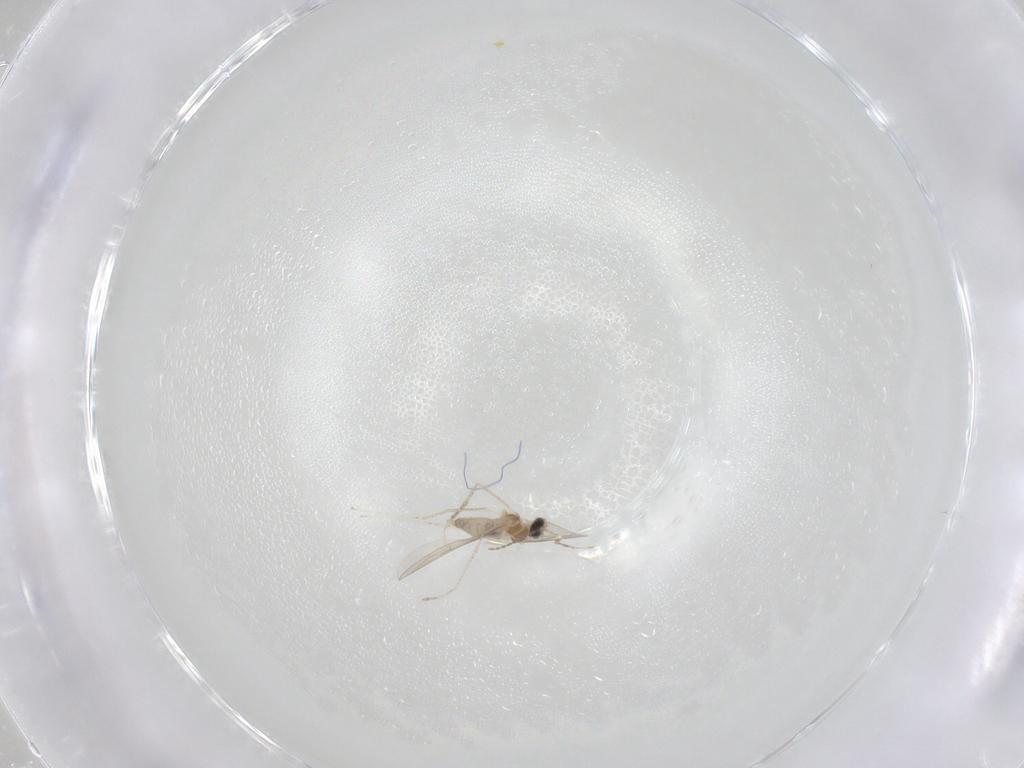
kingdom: Animalia
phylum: Arthropoda
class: Insecta
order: Diptera
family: Cecidomyiidae
